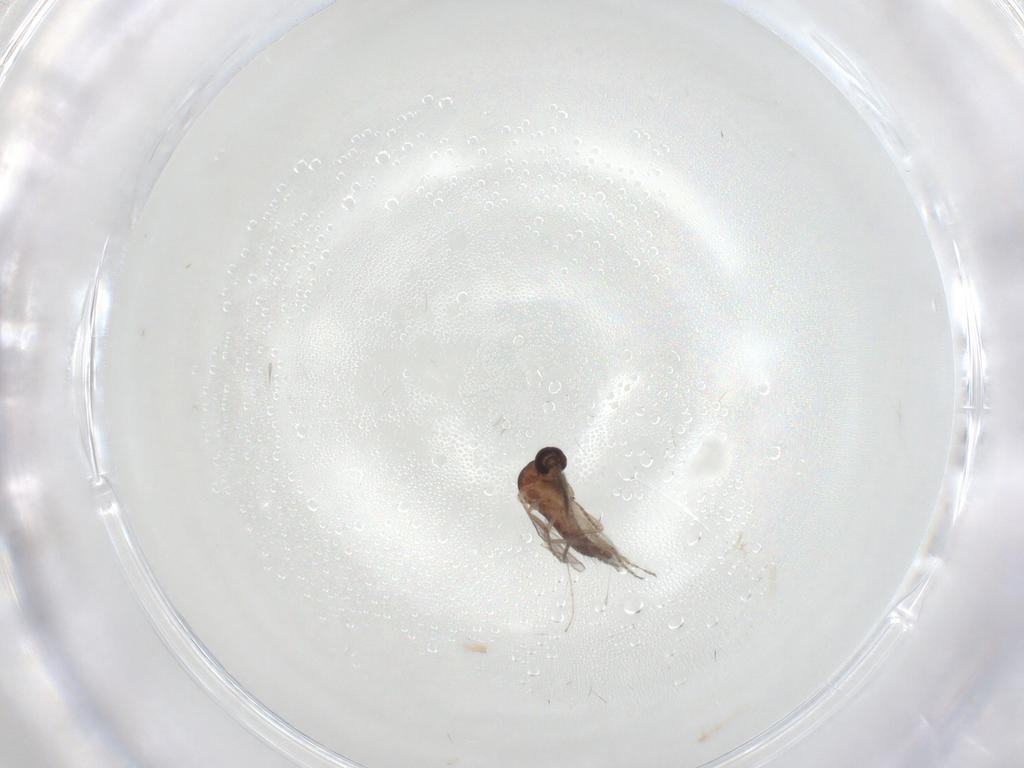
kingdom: Animalia
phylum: Arthropoda
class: Insecta
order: Diptera
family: Ceratopogonidae
